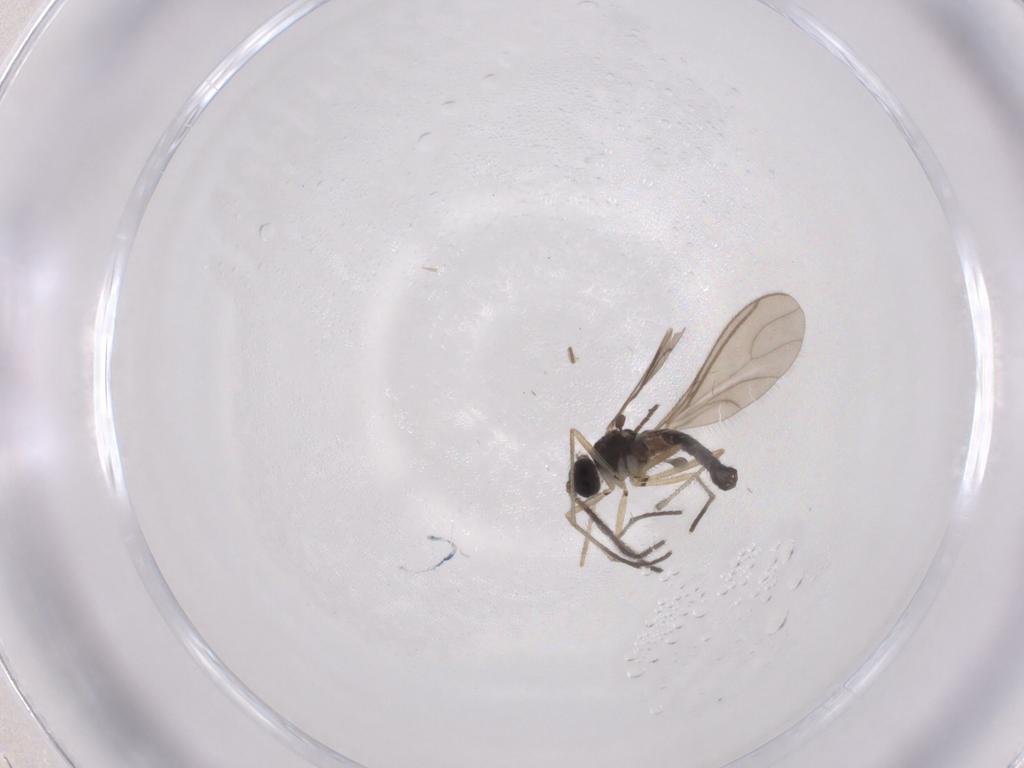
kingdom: Animalia
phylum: Arthropoda
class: Insecta
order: Diptera
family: Sciaridae
